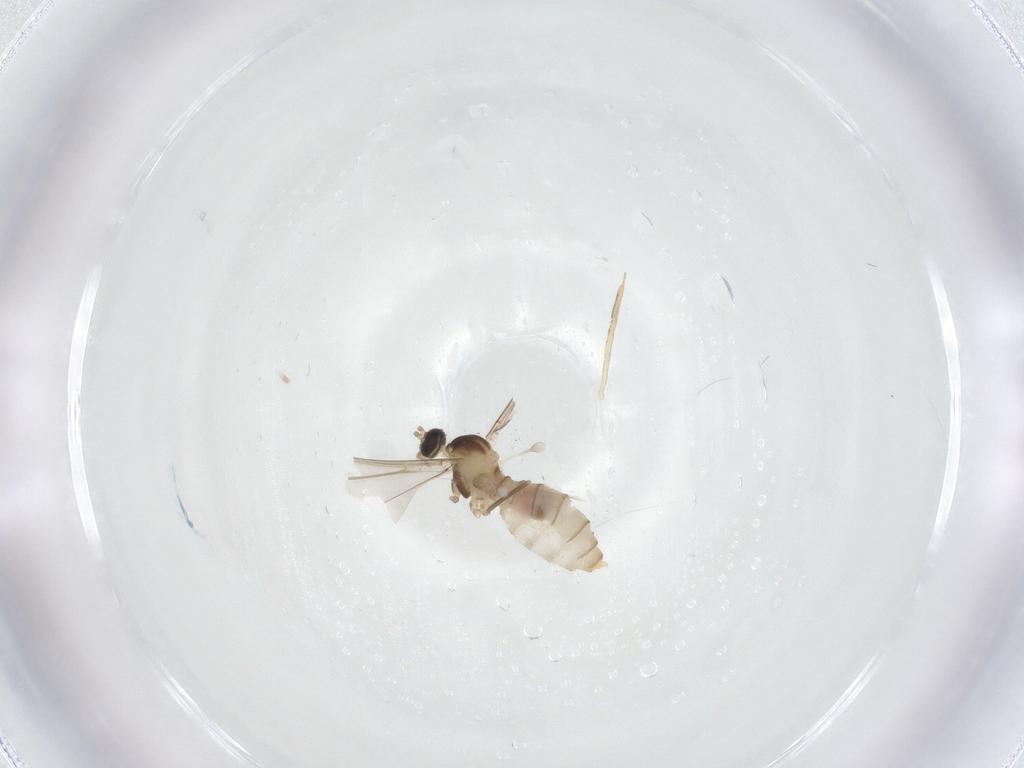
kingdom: Animalia
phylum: Arthropoda
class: Insecta
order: Diptera
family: Cecidomyiidae
